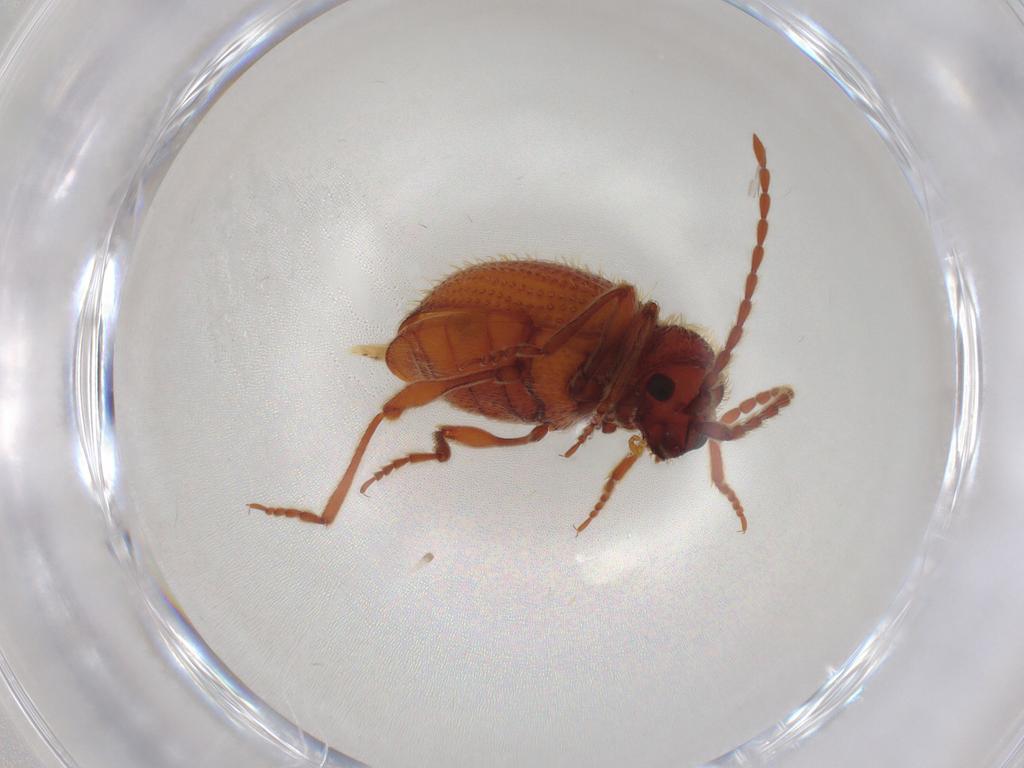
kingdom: Animalia
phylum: Arthropoda
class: Insecta
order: Coleoptera
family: Ptinidae
